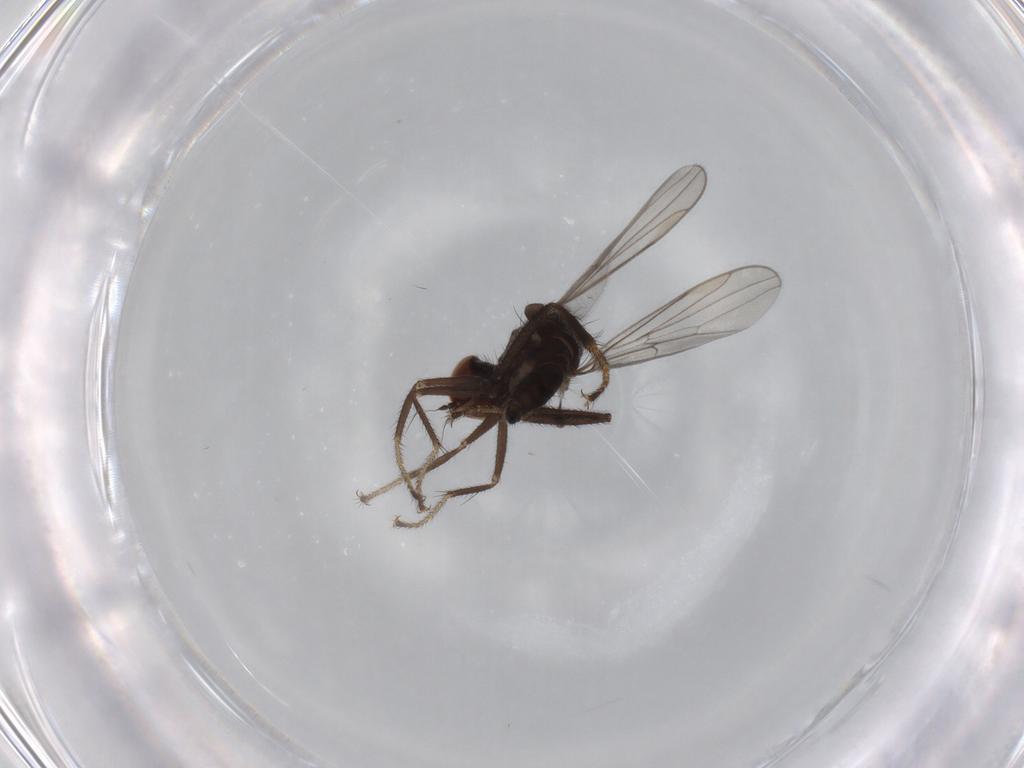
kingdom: Animalia
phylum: Arthropoda
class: Insecta
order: Diptera
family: Hybotidae
